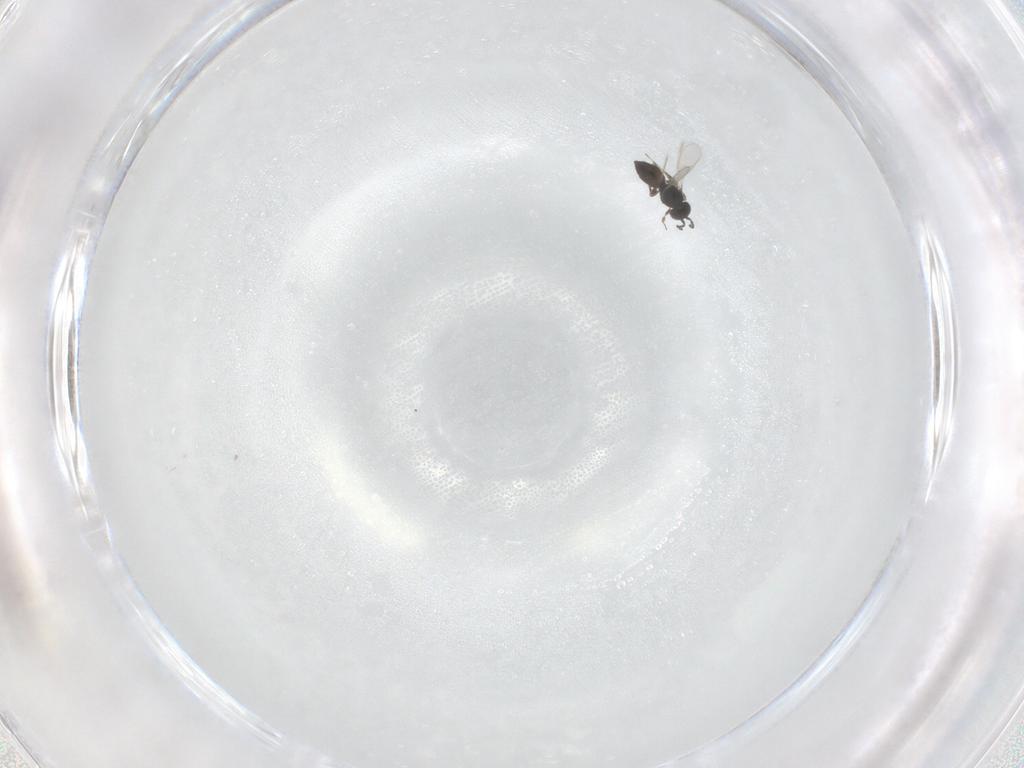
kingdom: Animalia
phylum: Arthropoda
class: Insecta
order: Hymenoptera
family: Scelionidae
